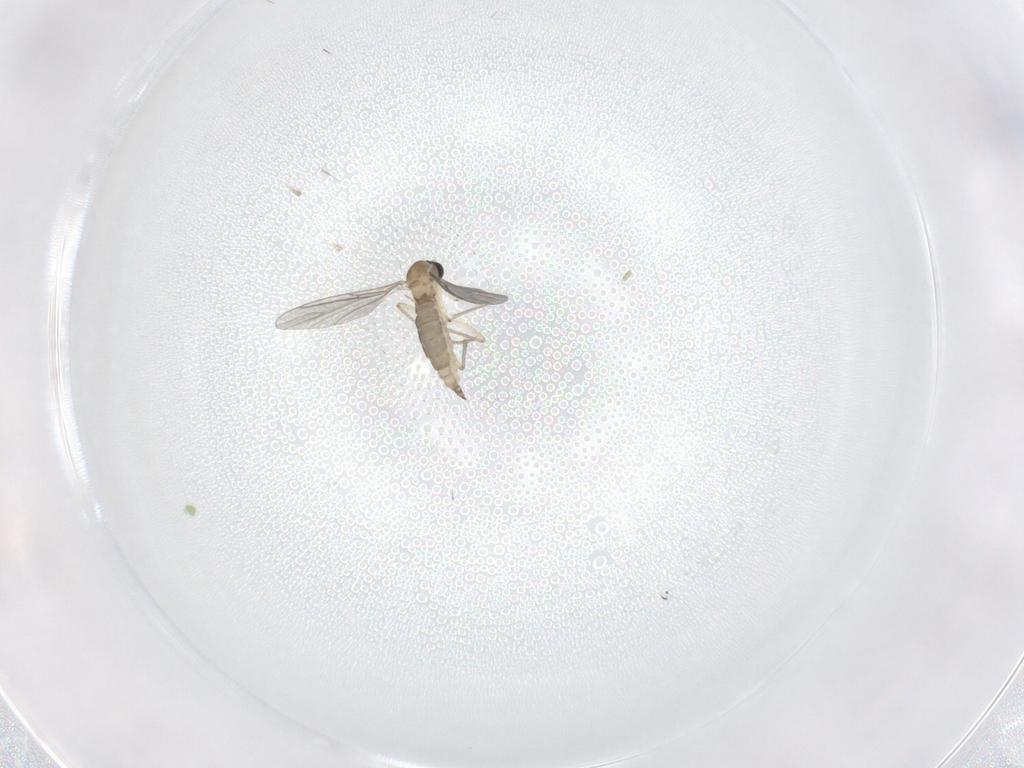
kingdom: Animalia
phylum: Arthropoda
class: Insecta
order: Diptera
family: Sciaridae
